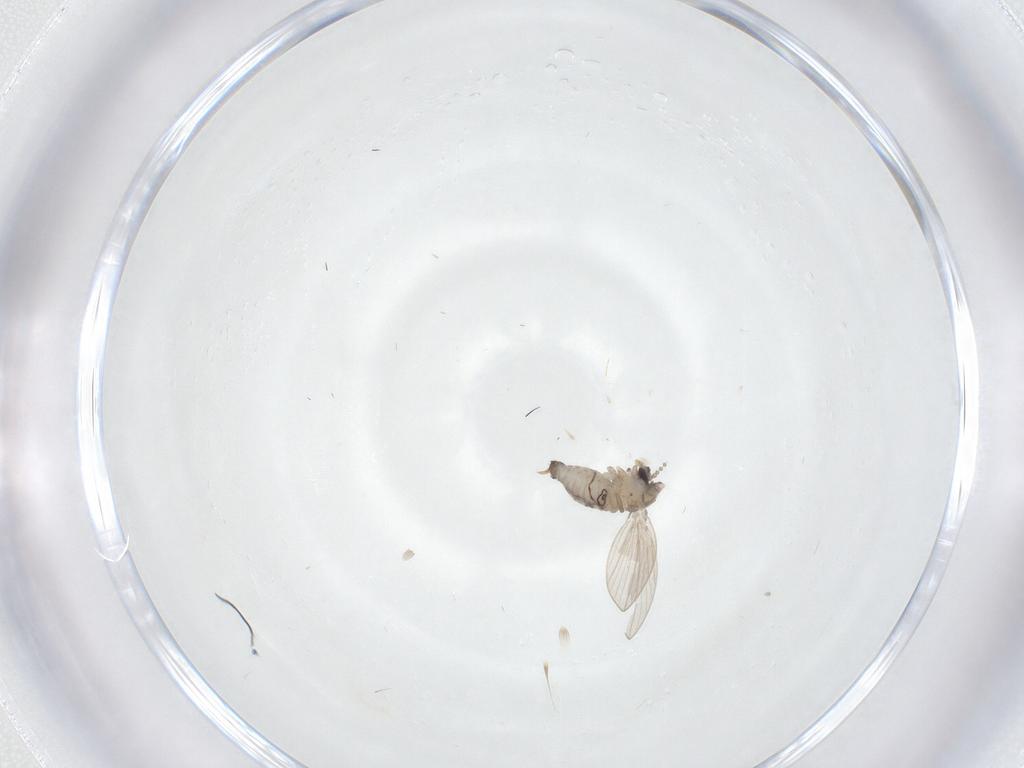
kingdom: Animalia
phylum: Arthropoda
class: Insecta
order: Diptera
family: Psychodidae
